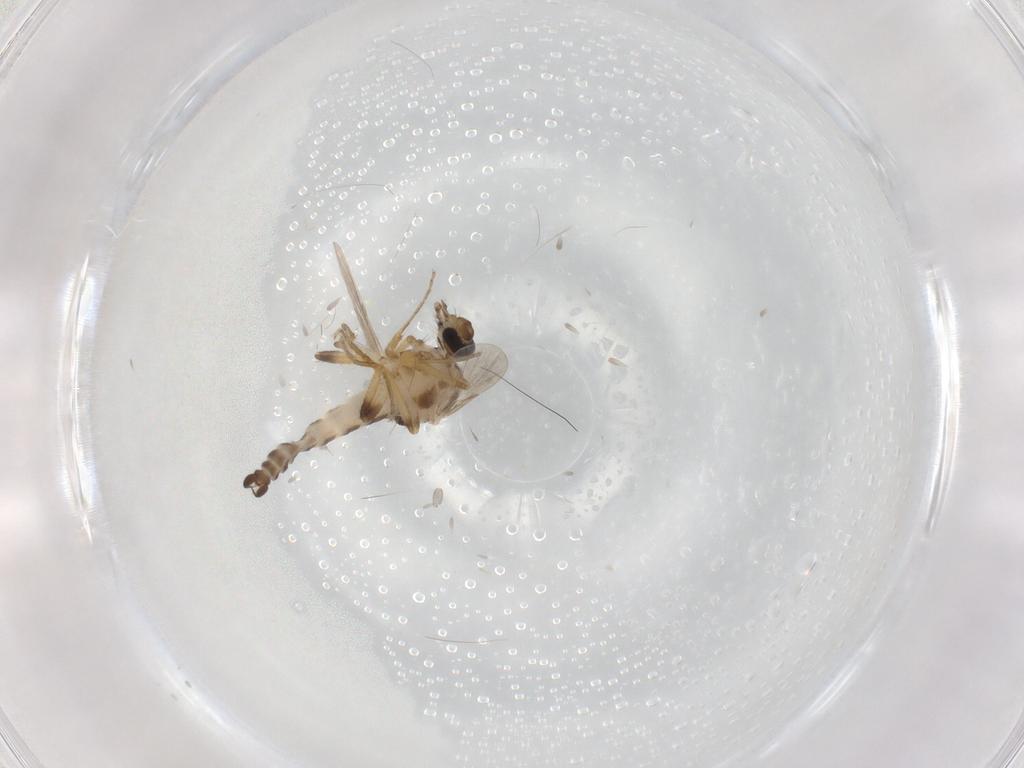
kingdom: Animalia
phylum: Arthropoda
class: Insecta
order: Diptera
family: Ceratopogonidae
